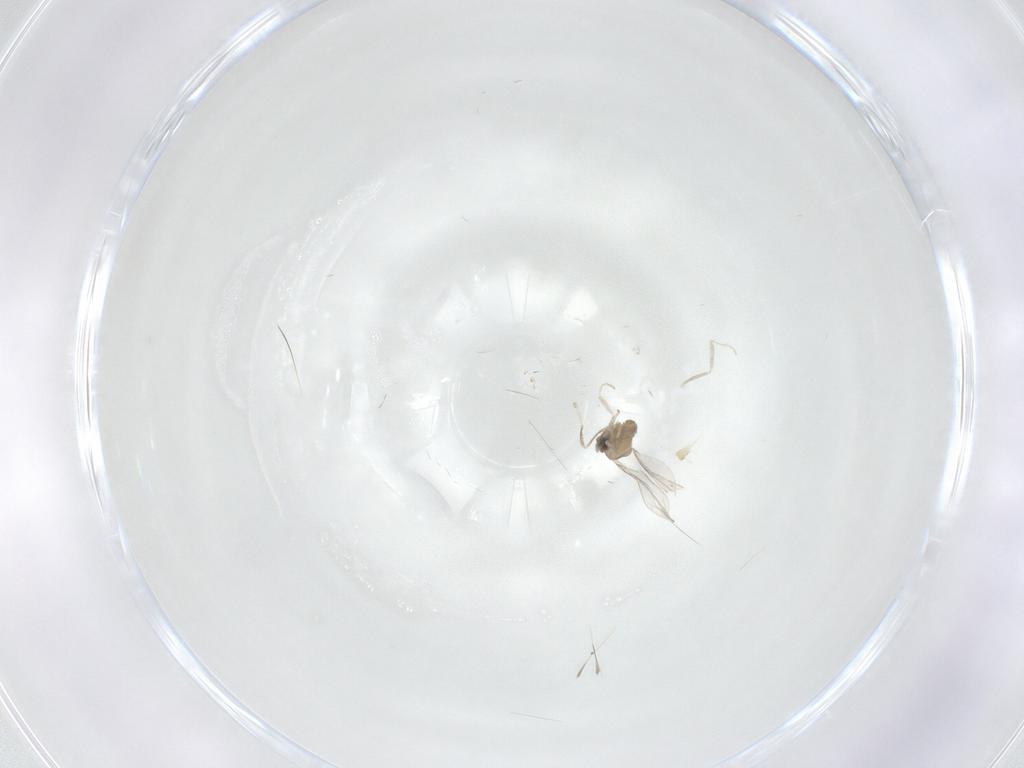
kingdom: Animalia
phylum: Arthropoda
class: Insecta
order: Diptera
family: Cecidomyiidae
